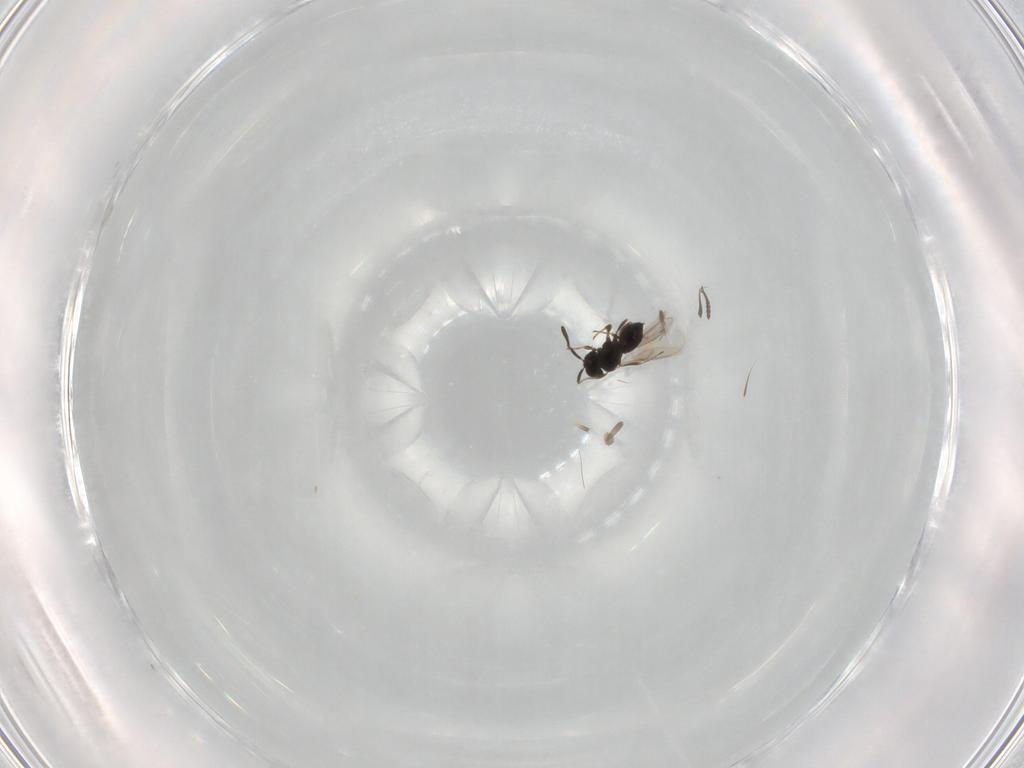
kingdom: Animalia
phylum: Arthropoda
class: Insecta
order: Hymenoptera
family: Scelionidae
